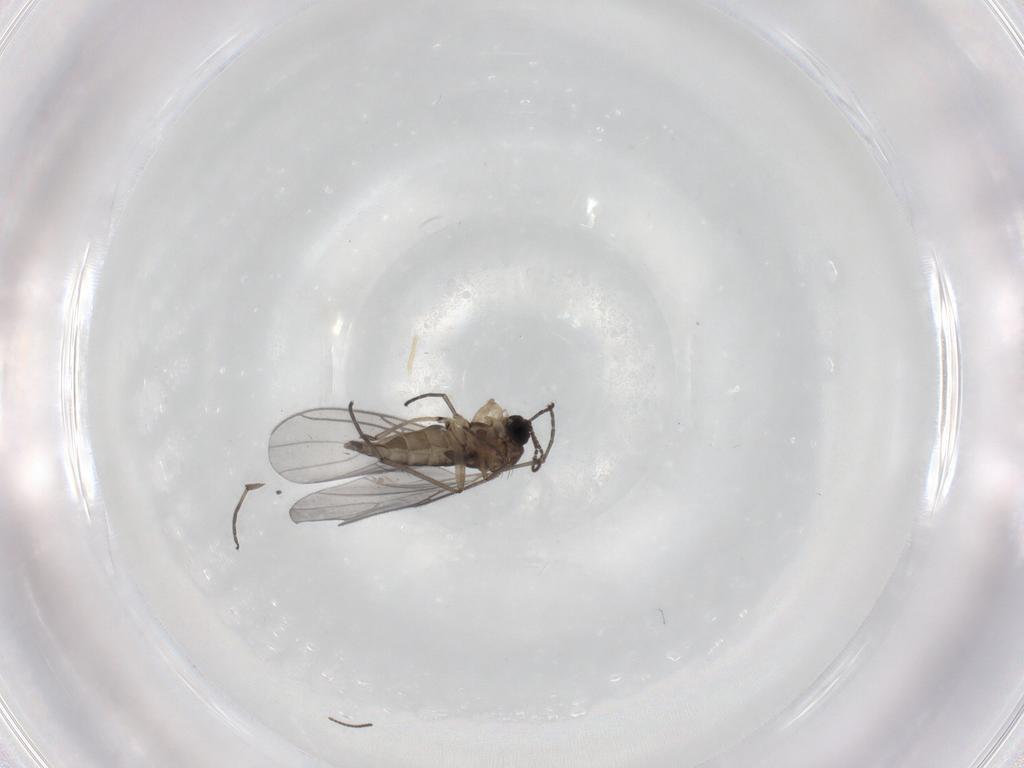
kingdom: Animalia
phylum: Arthropoda
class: Insecta
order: Diptera
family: Sciaridae
